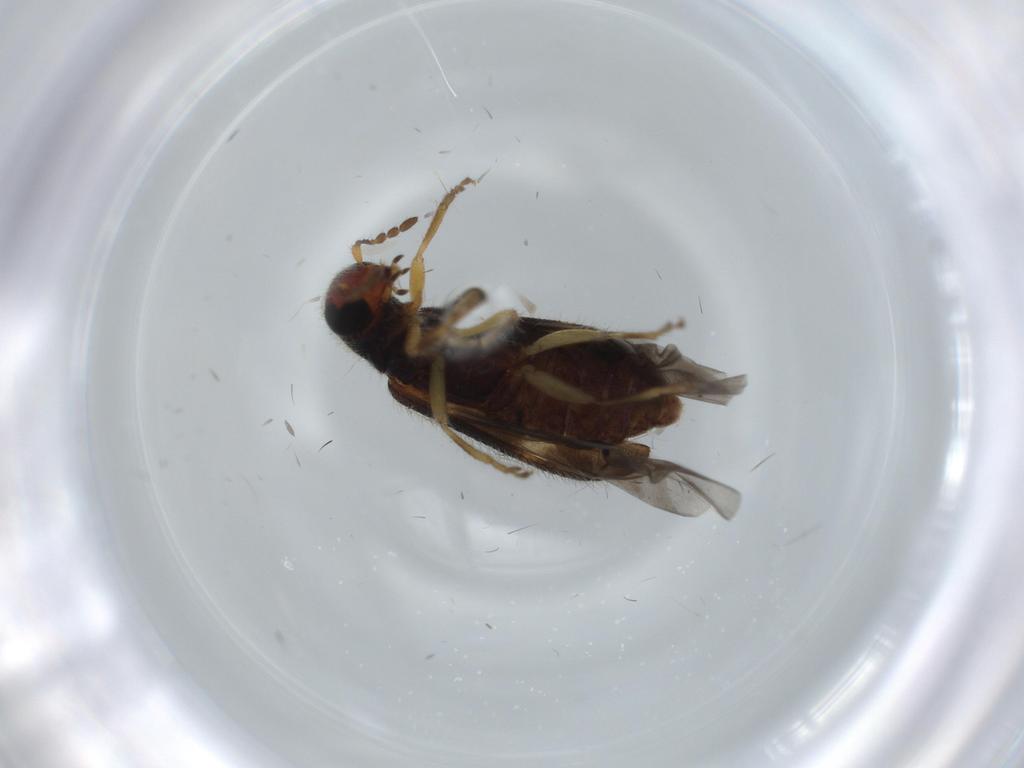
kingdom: Animalia
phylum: Arthropoda
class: Insecta
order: Coleoptera
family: Cleridae
